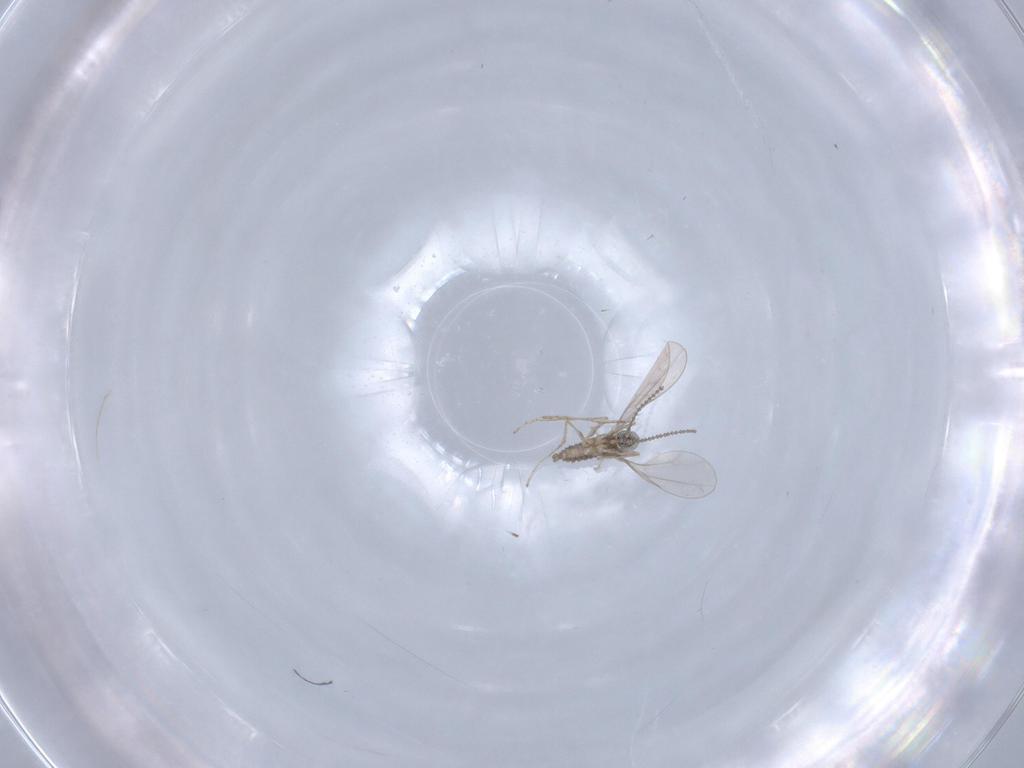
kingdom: Animalia
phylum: Arthropoda
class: Insecta
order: Diptera
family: Cecidomyiidae
